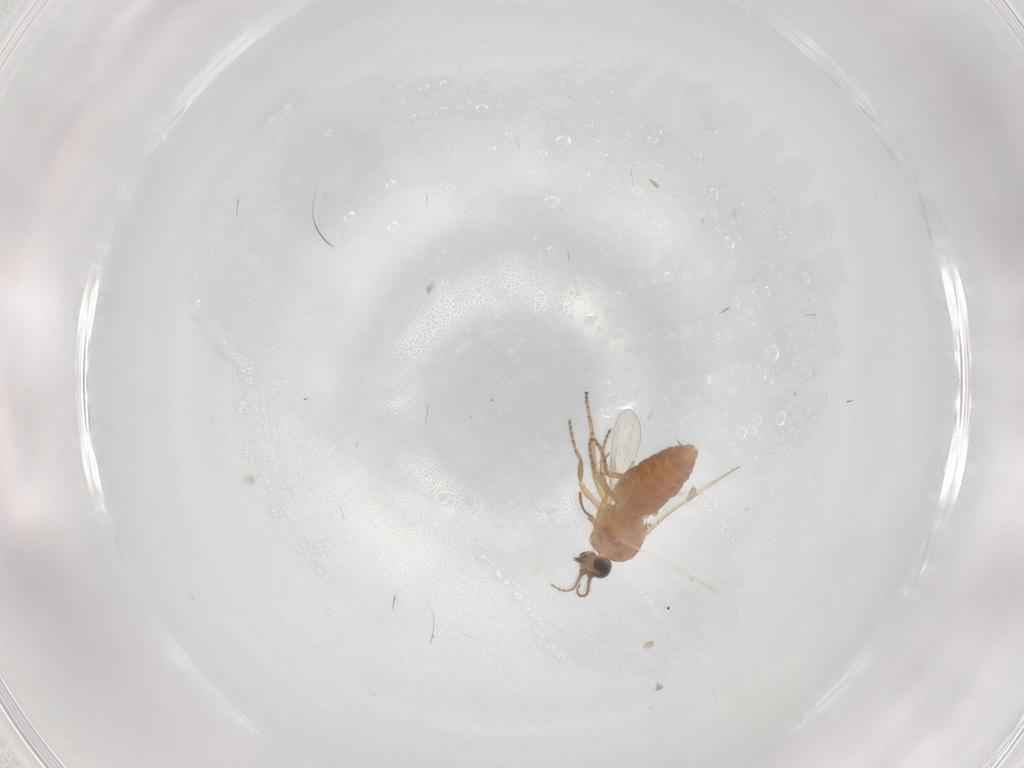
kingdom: Animalia
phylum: Arthropoda
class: Insecta
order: Diptera
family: Ceratopogonidae
